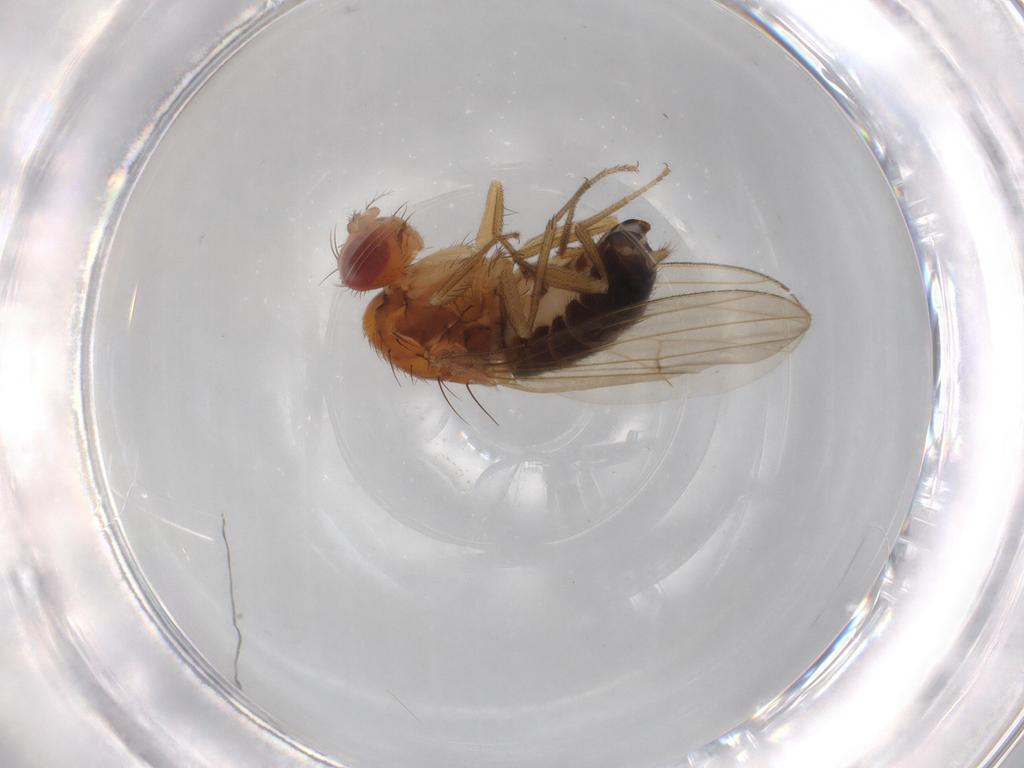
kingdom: Animalia
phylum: Arthropoda
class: Insecta
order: Diptera
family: Drosophilidae
